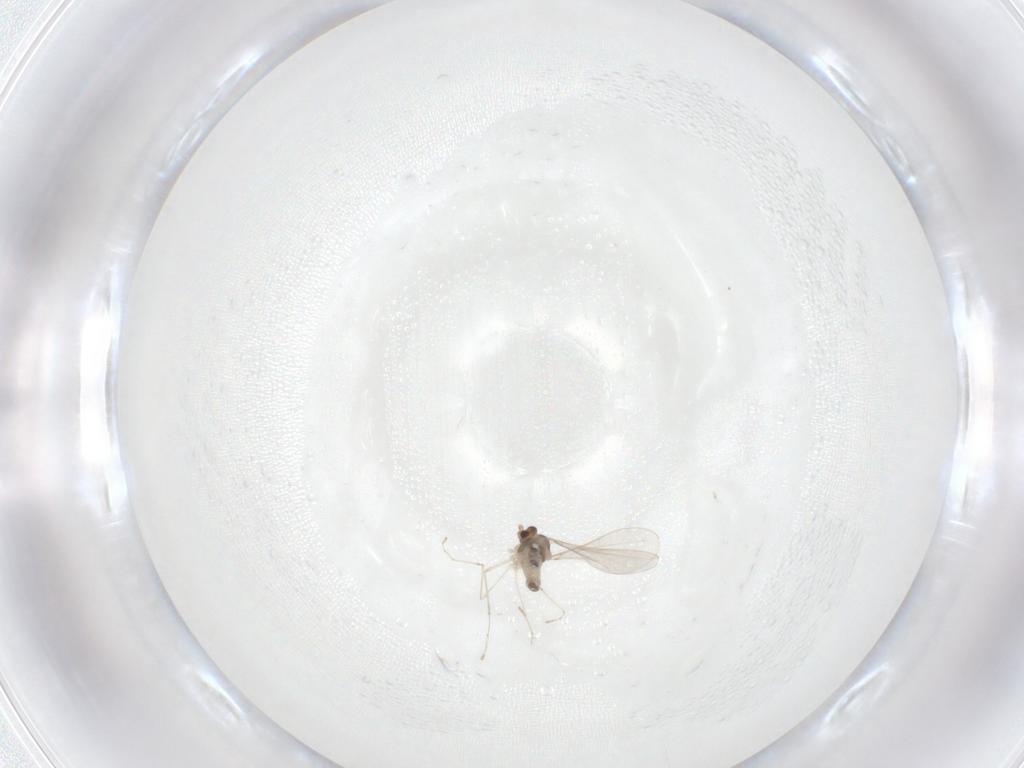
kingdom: Animalia
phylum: Arthropoda
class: Insecta
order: Diptera
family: Cecidomyiidae
